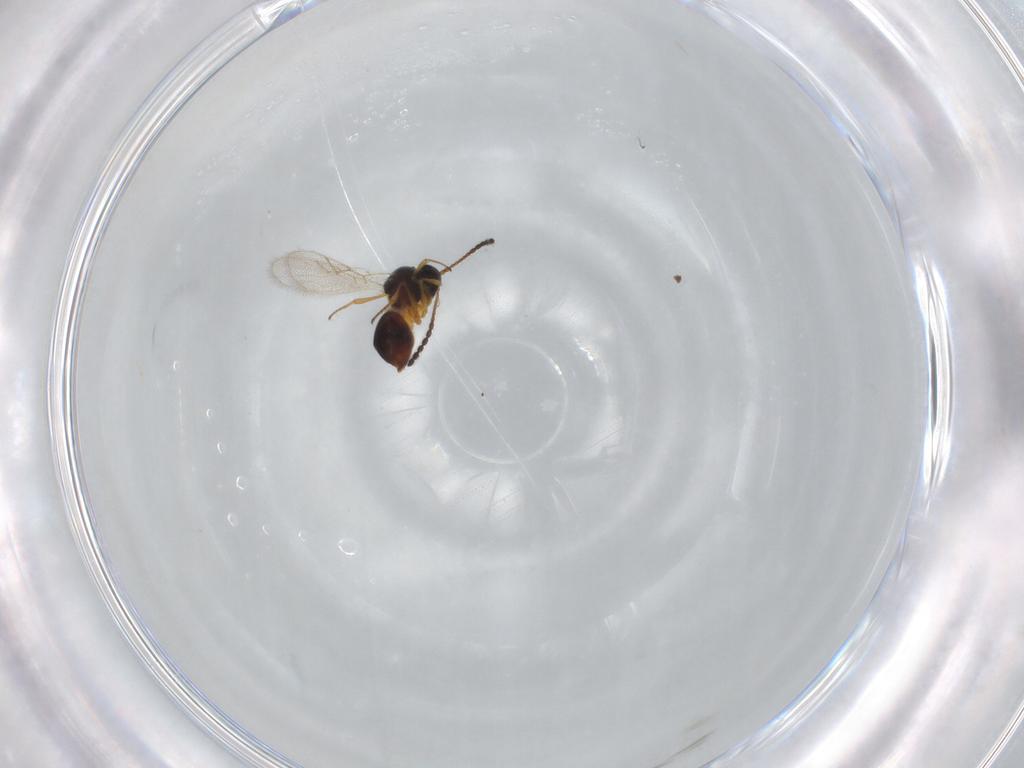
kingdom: Animalia
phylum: Arthropoda
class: Insecta
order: Hymenoptera
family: Figitidae
